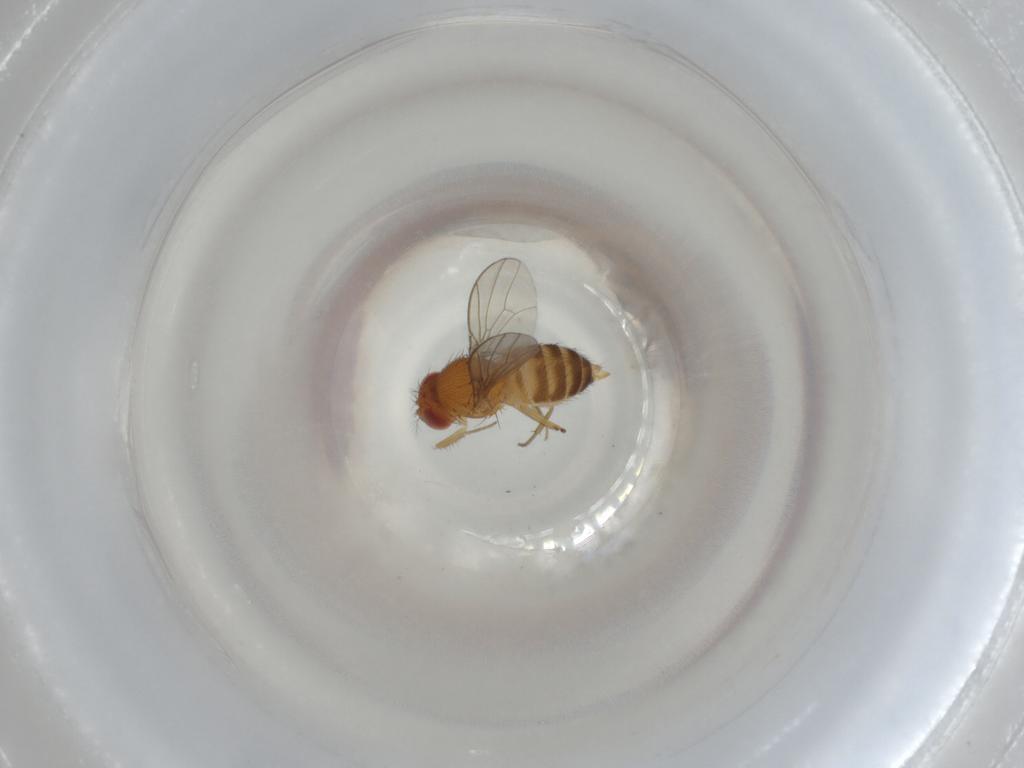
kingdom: Animalia
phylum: Arthropoda
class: Insecta
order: Diptera
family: Drosophilidae
